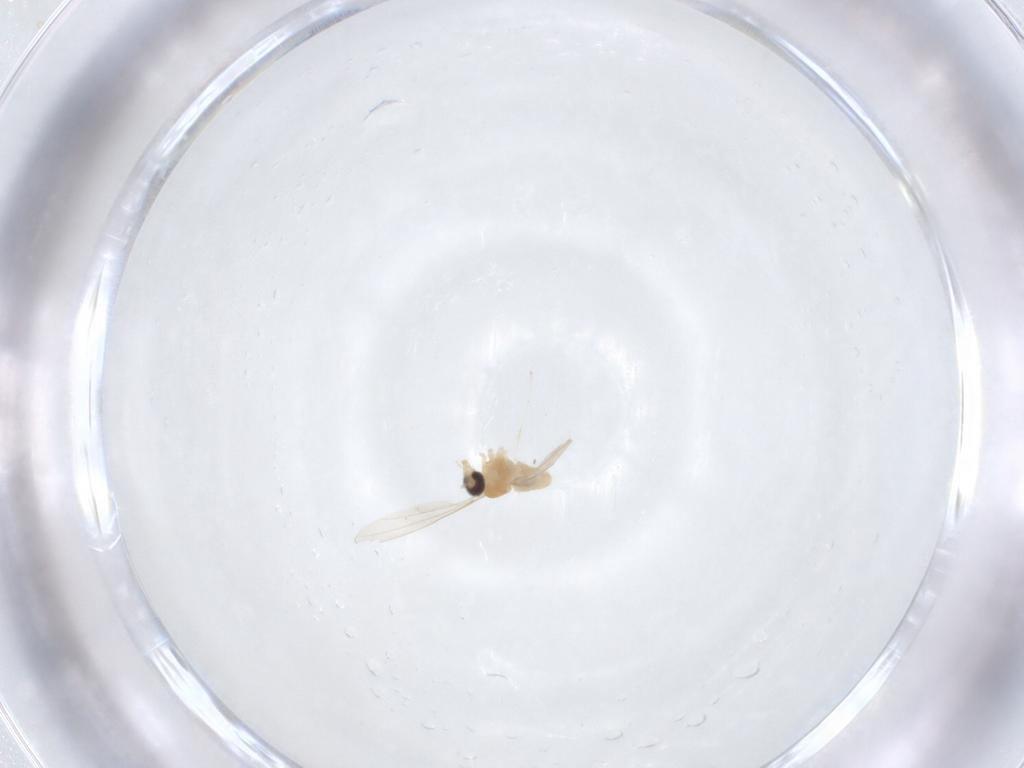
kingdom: Animalia
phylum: Arthropoda
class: Insecta
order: Diptera
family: Cecidomyiidae
